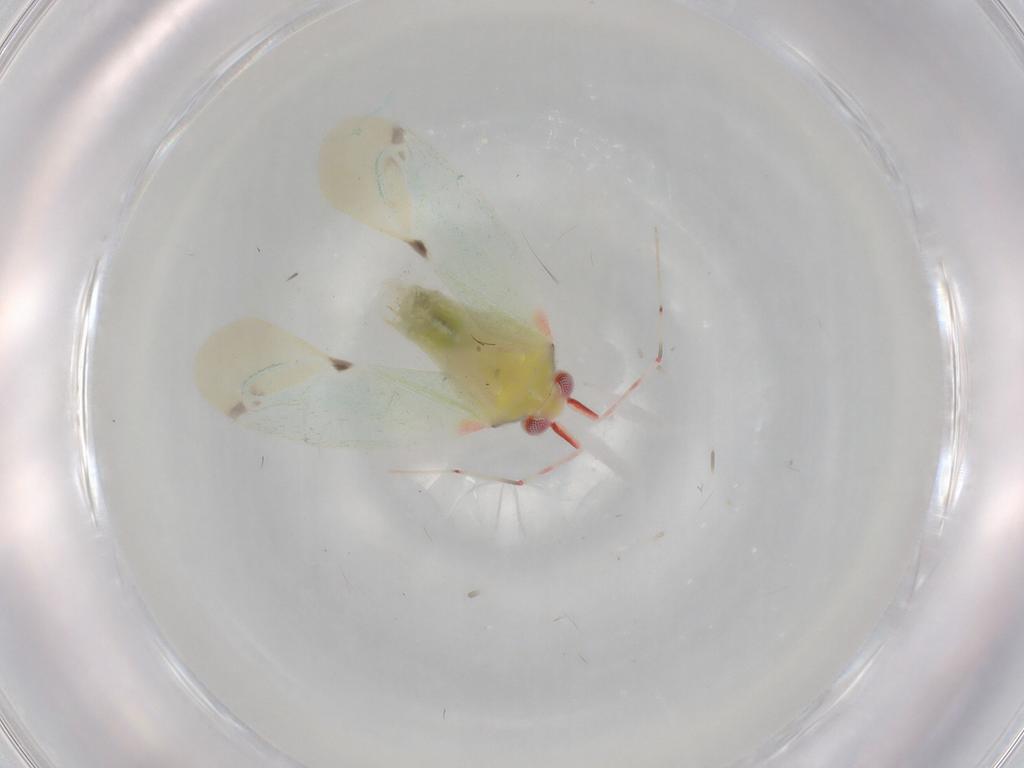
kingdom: Animalia
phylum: Arthropoda
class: Insecta
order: Hemiptera
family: Miridae
